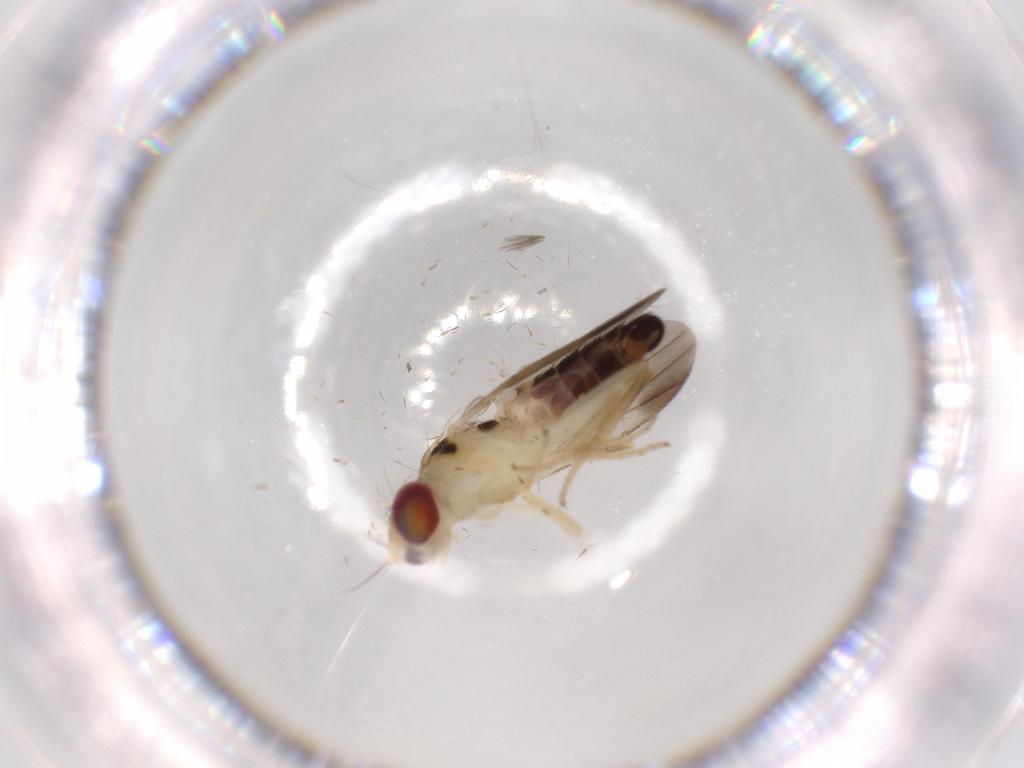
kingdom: Animalia
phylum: Arthropoda
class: Insecta
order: Diptera
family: Clusiidae
